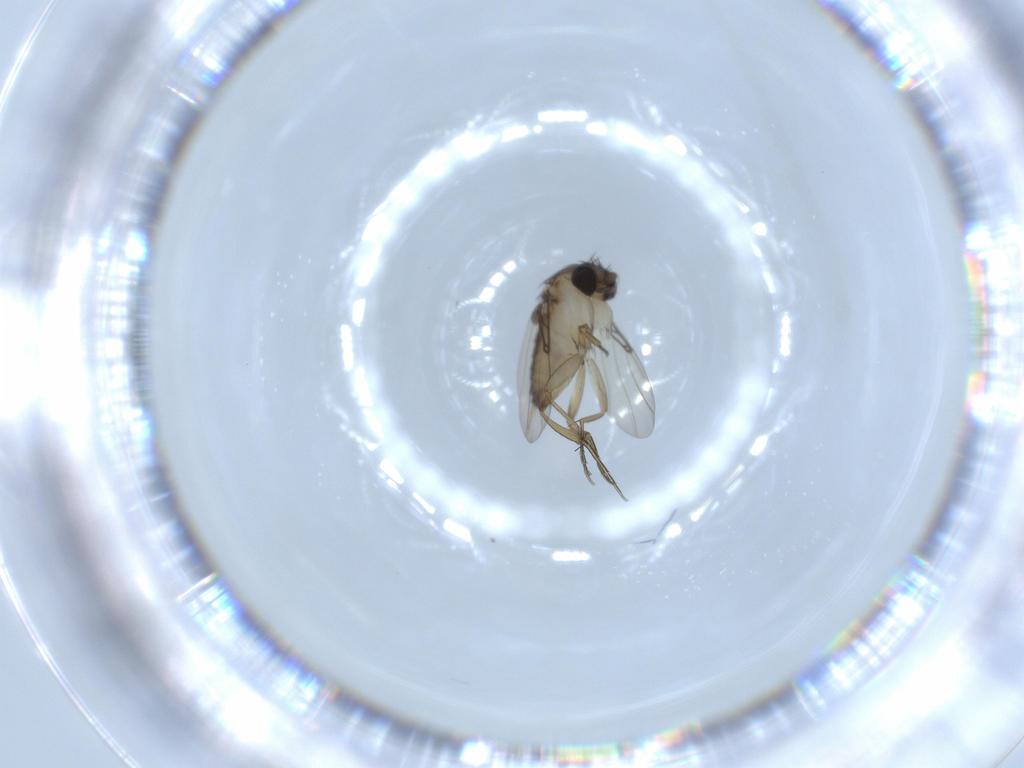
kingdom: Animalia
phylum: Arthropoda
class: Insecta
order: Diptera
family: Phoridae
